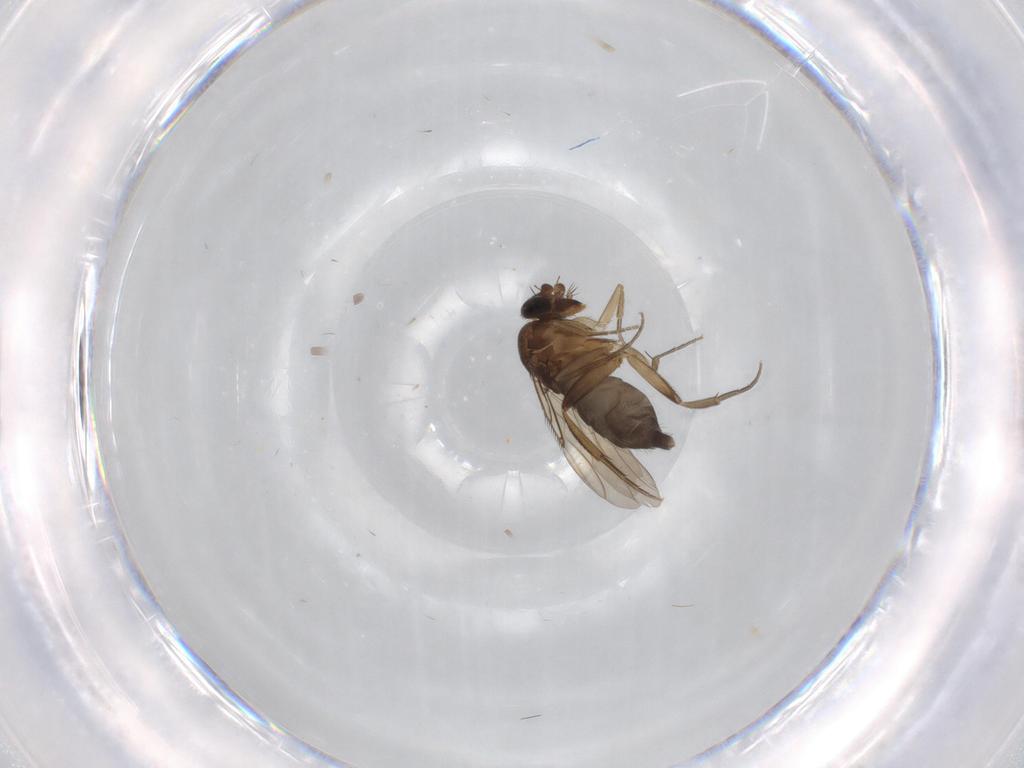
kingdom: Animalia
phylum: Arthropoda
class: Insecta
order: Diptera
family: Phoridae
